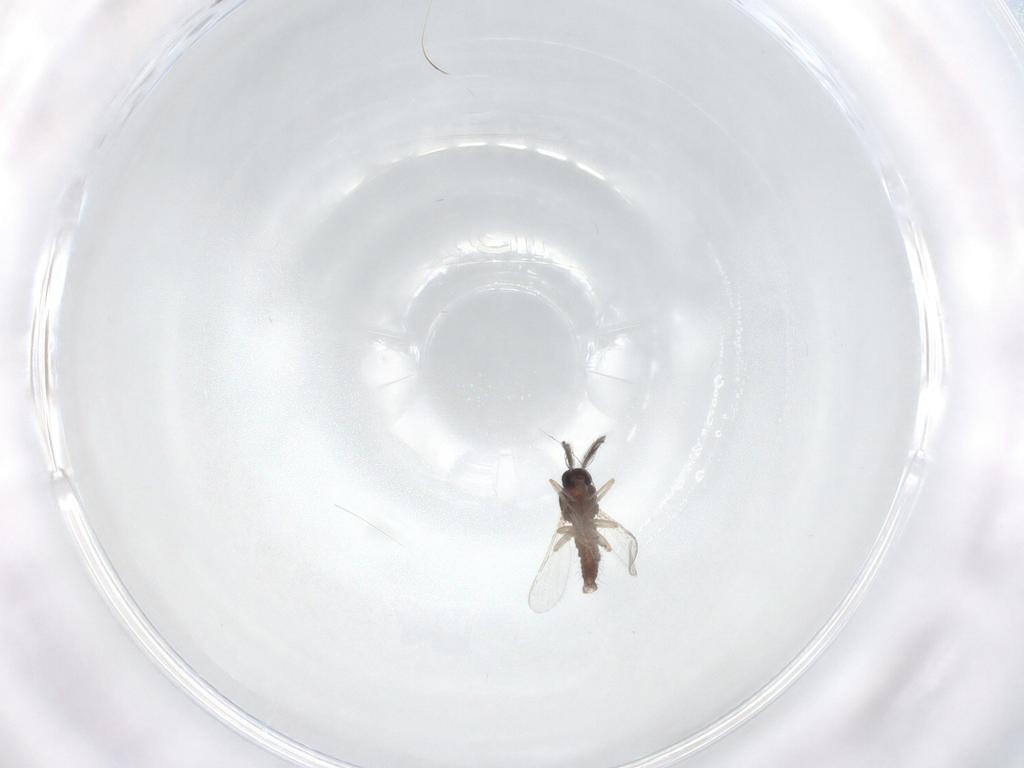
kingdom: Animalia
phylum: Arthropoda
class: Insecta
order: Diptera
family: Ceratopogonidae
